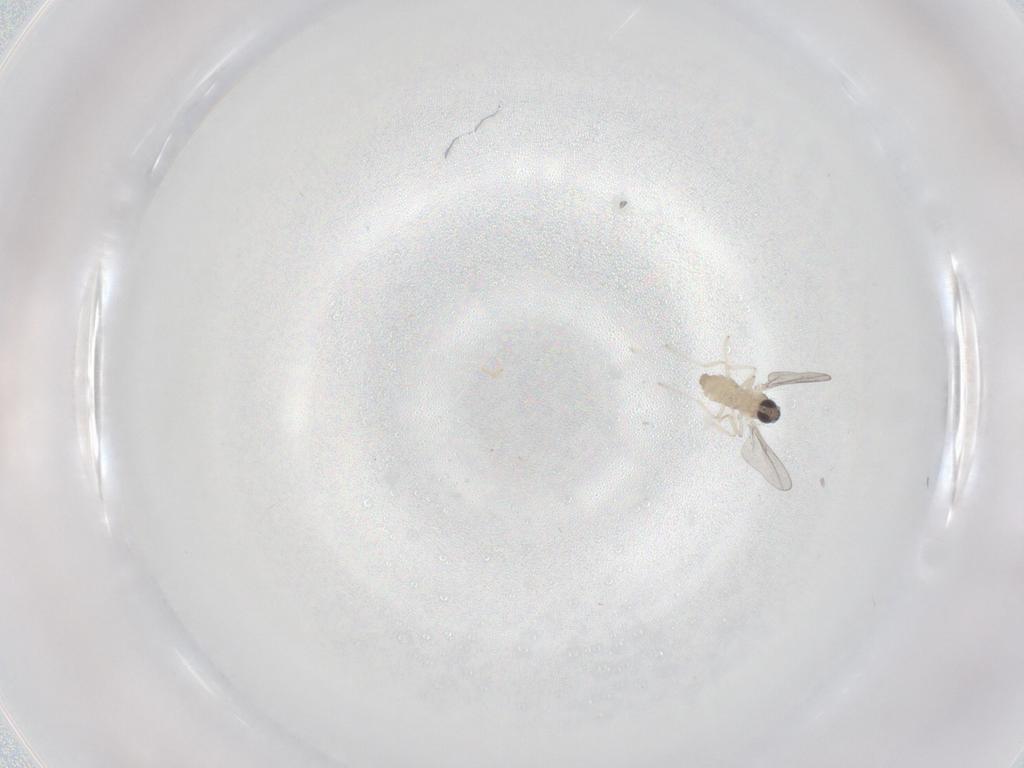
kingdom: Animalia
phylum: Arthropoda
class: Insecta
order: Diptera
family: Cecidomyiidae
